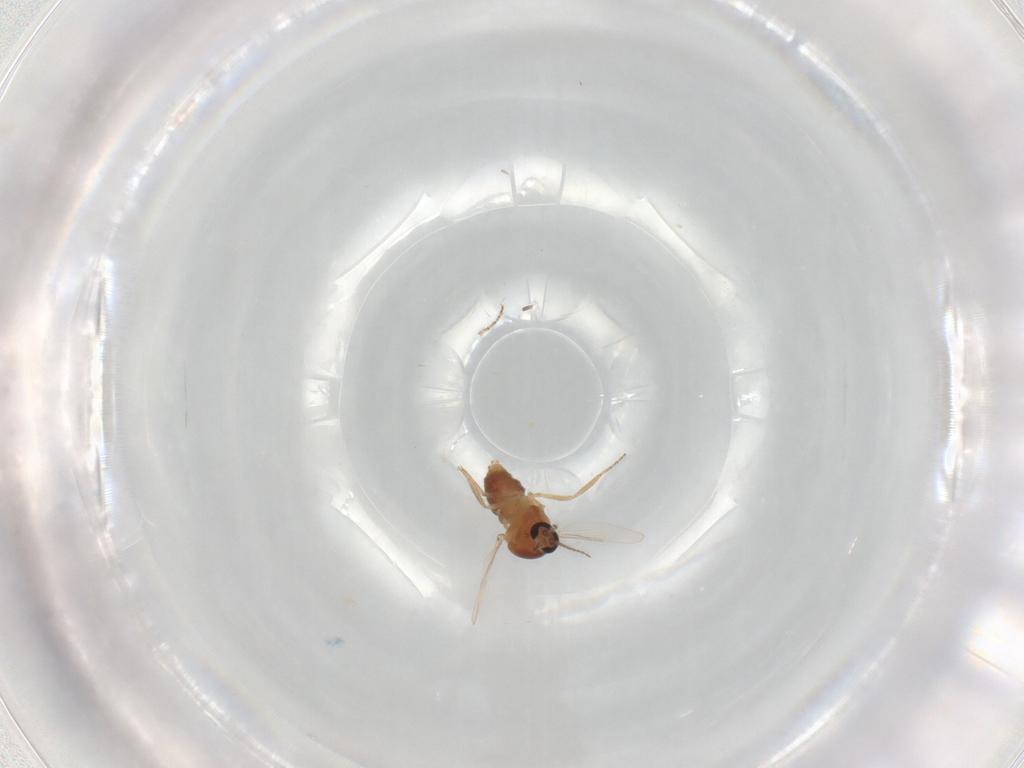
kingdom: Animalia
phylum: Arthropoda
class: Insecta
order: Diptera
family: Ceratopogonidae
